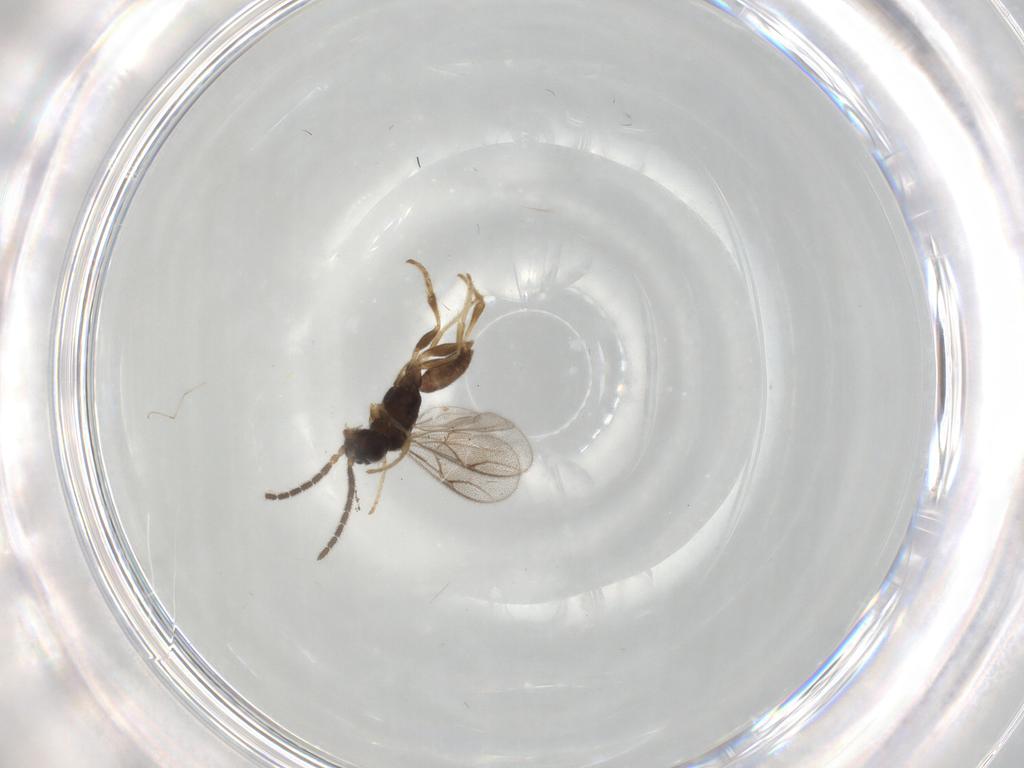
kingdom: Animalia
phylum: Arthropoda
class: Insecta
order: Hymenoptera
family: Dryinidae
